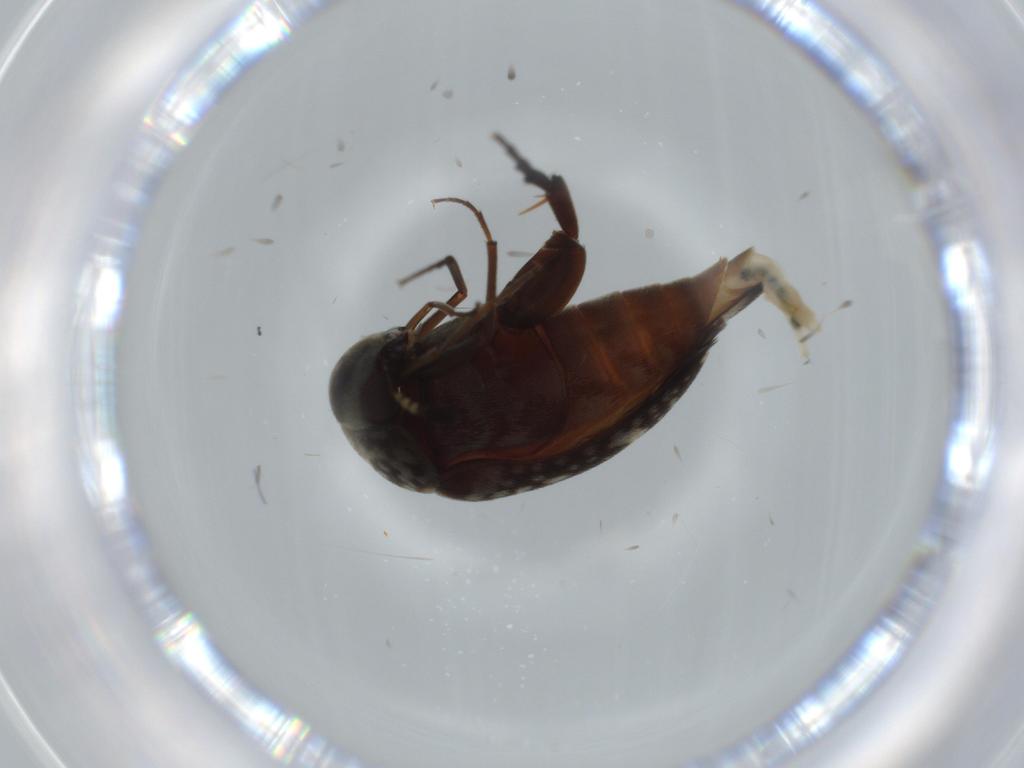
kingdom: Animalia
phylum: Arthropoda
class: Insecta
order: Coleoptera
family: Curculionidae
